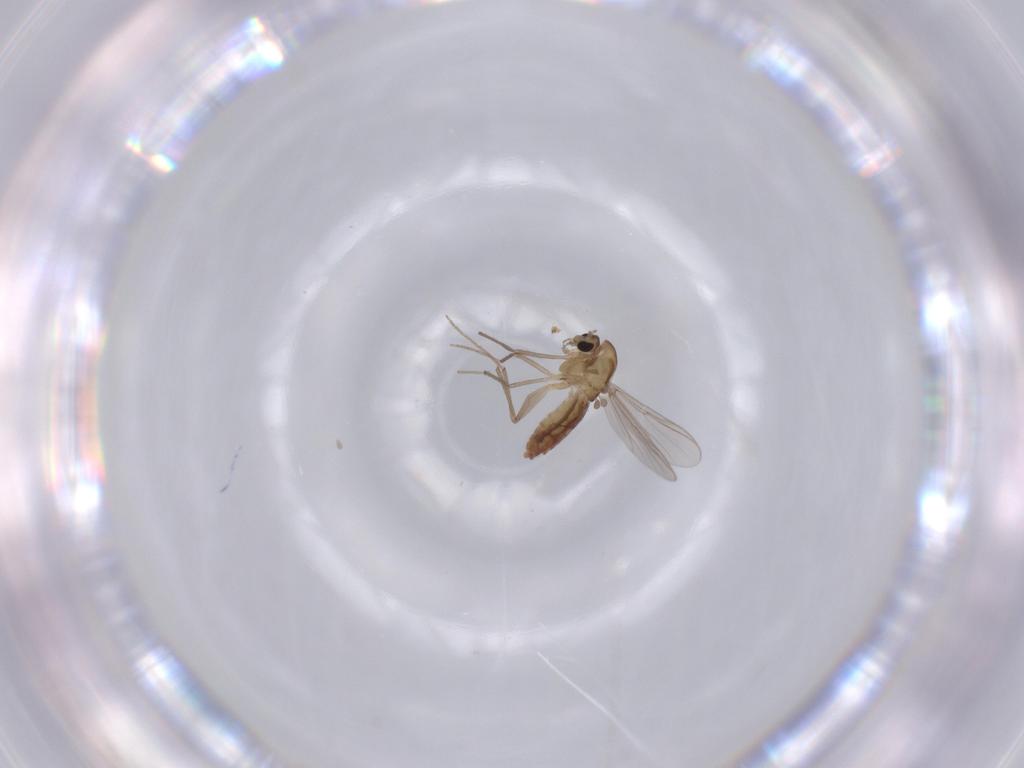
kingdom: Animalia
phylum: Arthropoda
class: Insecta
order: Diptera
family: Chironomidae
